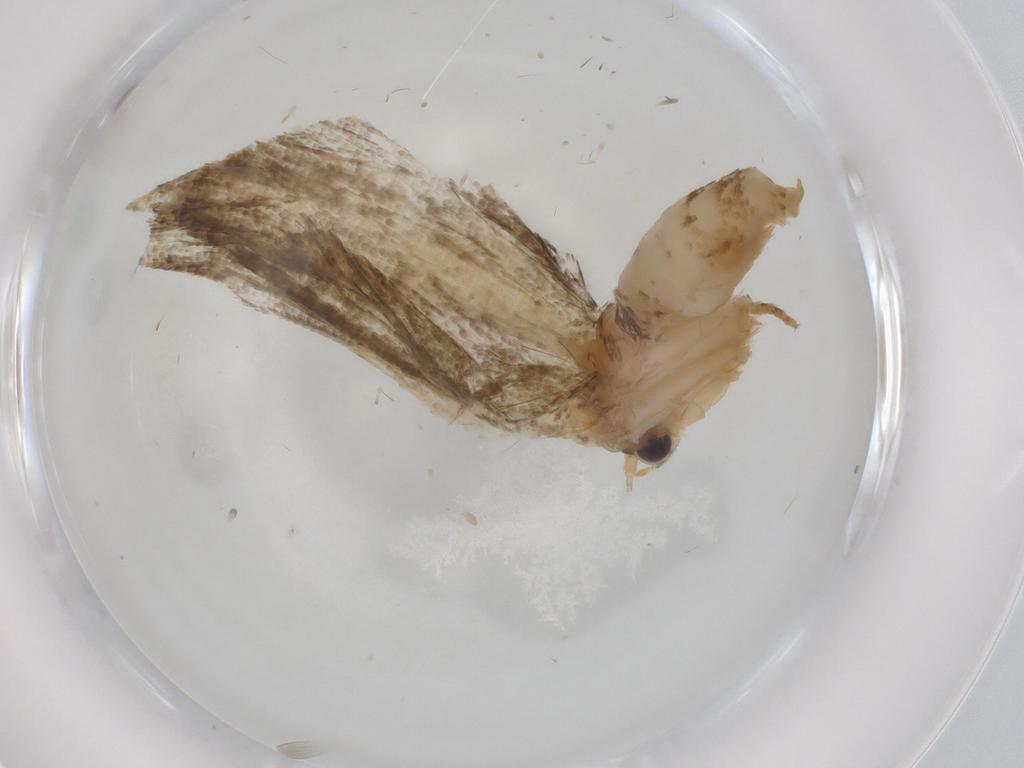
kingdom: Animalia
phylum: Arthropoda
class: Insecta
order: Lepidoptera
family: Tortricidae
